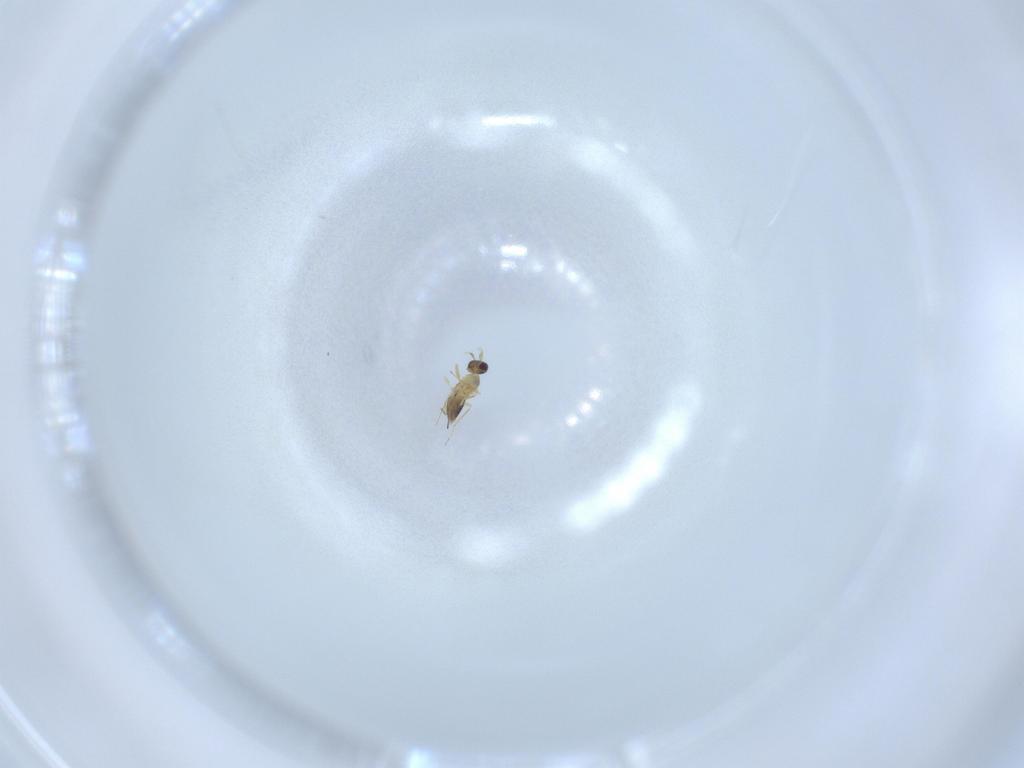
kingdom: Animalia
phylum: Arthropoda
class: Insecta
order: Hymenoptera
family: Mymaridae
